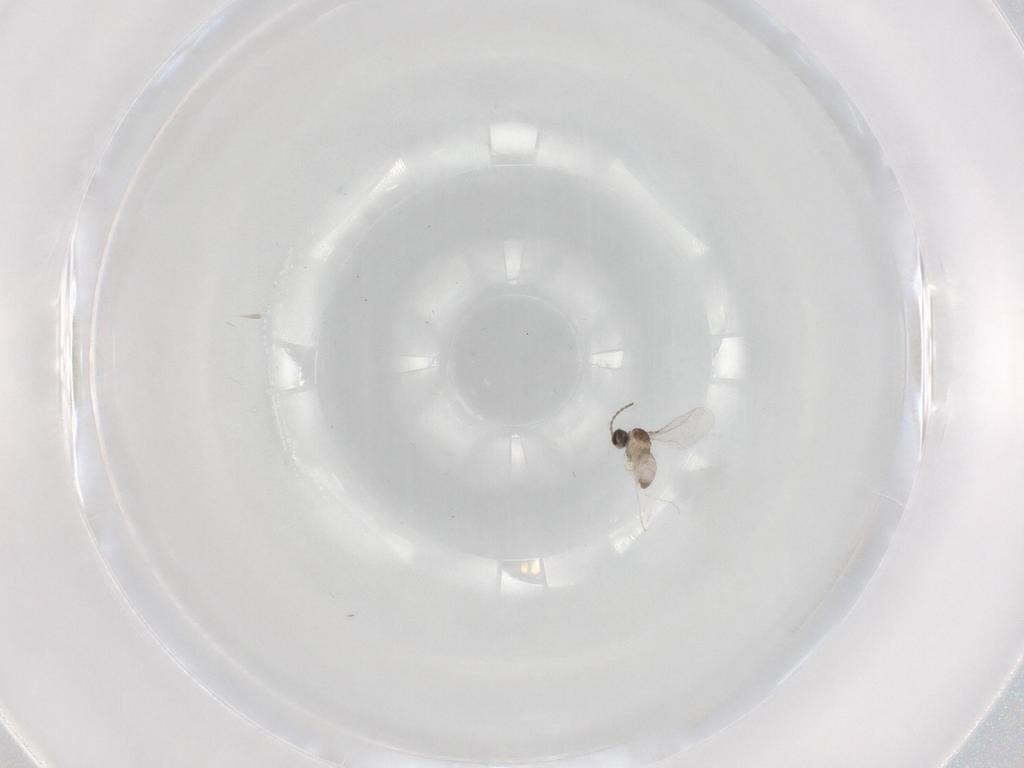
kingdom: Animalia
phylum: Arthropoda
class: Insecta
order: Diptera
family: Cecidomyiidae
